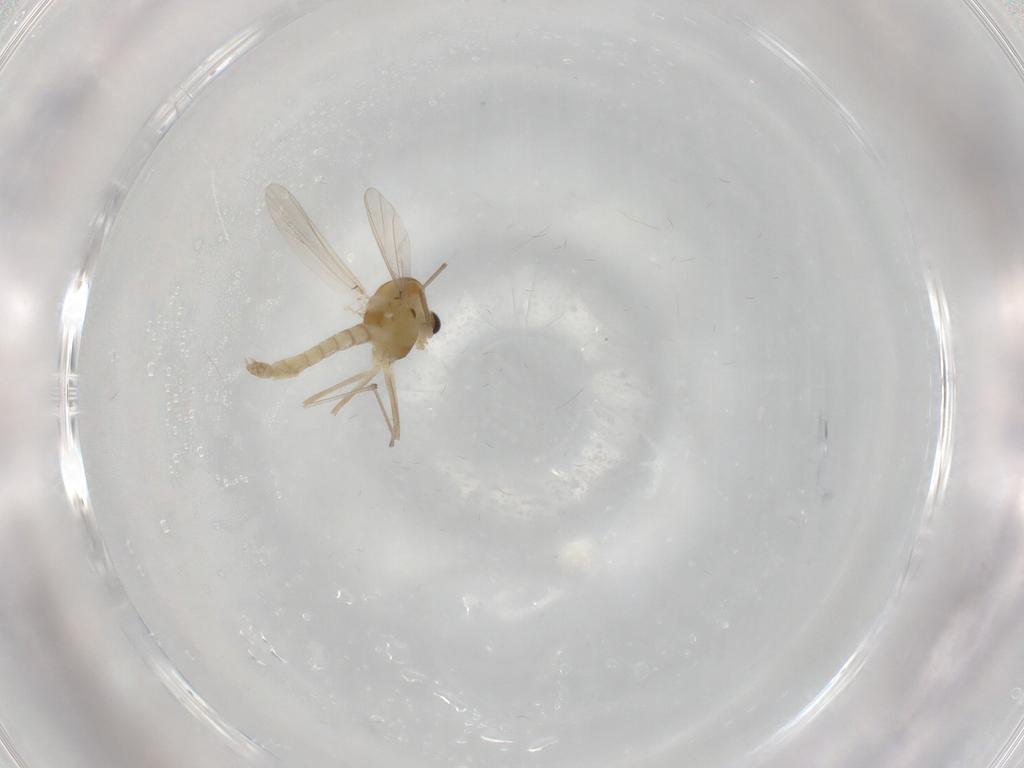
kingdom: Animalia
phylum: Arthropoda
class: Insecta
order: Diptera
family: Chironomidae
